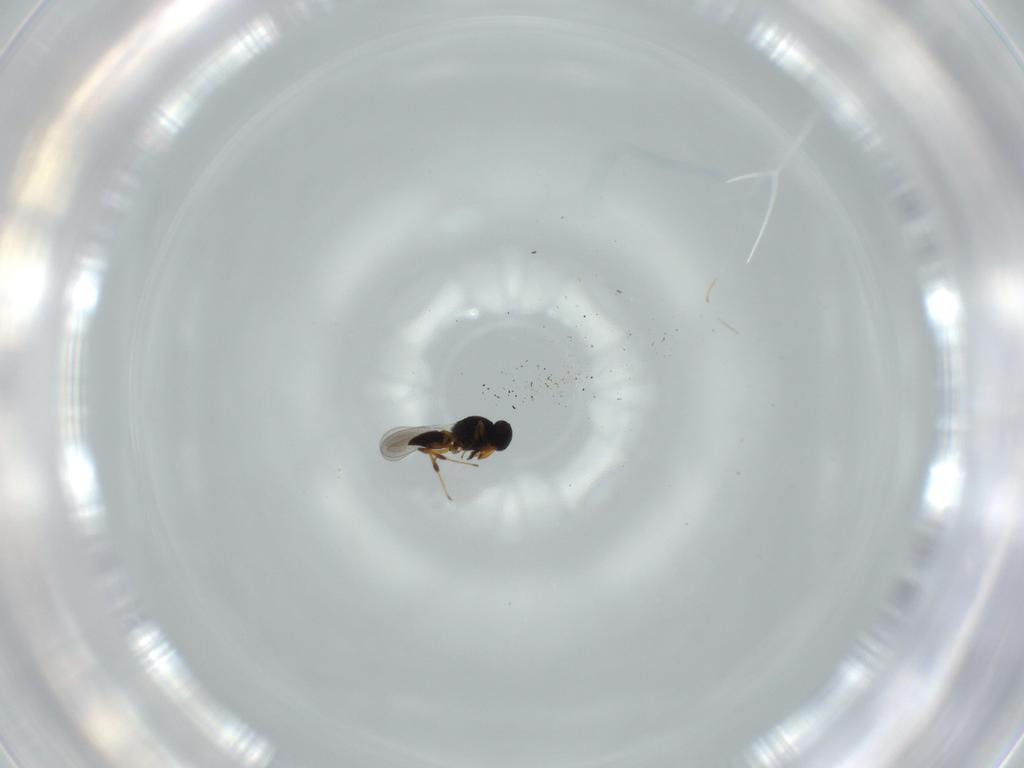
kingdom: Animalia
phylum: Arthropoda
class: Insecta
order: Hymenoptera
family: Platygastridae
